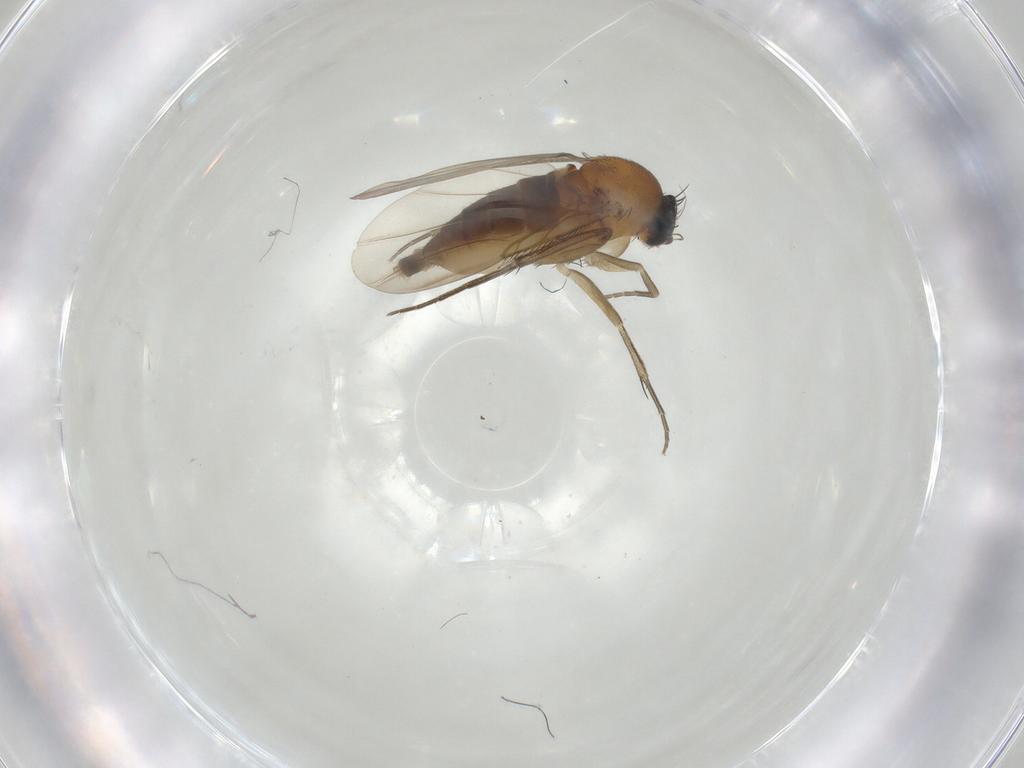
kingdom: Animalia
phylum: Arthropoda
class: Insecta
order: Diptera
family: Phoridae
